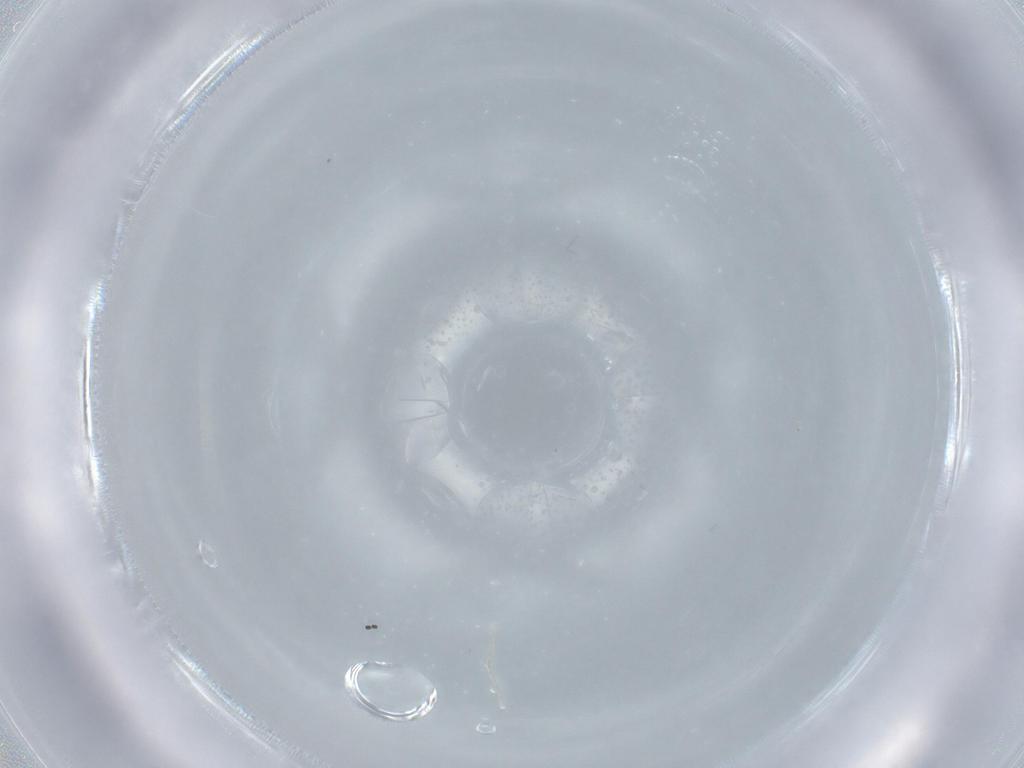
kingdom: Animalia
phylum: Arthropoda
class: Insecta
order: Diptera
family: Sciaridae
